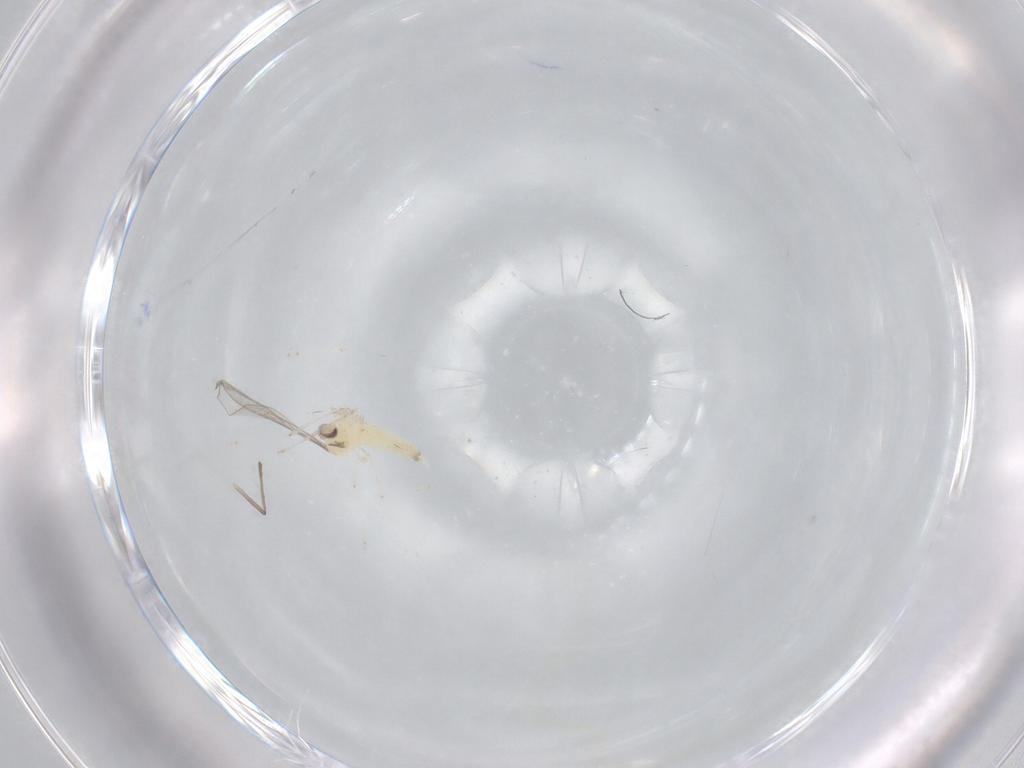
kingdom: Animalia
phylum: Arthropoda
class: Insecta
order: Diptera
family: Chironomidae
